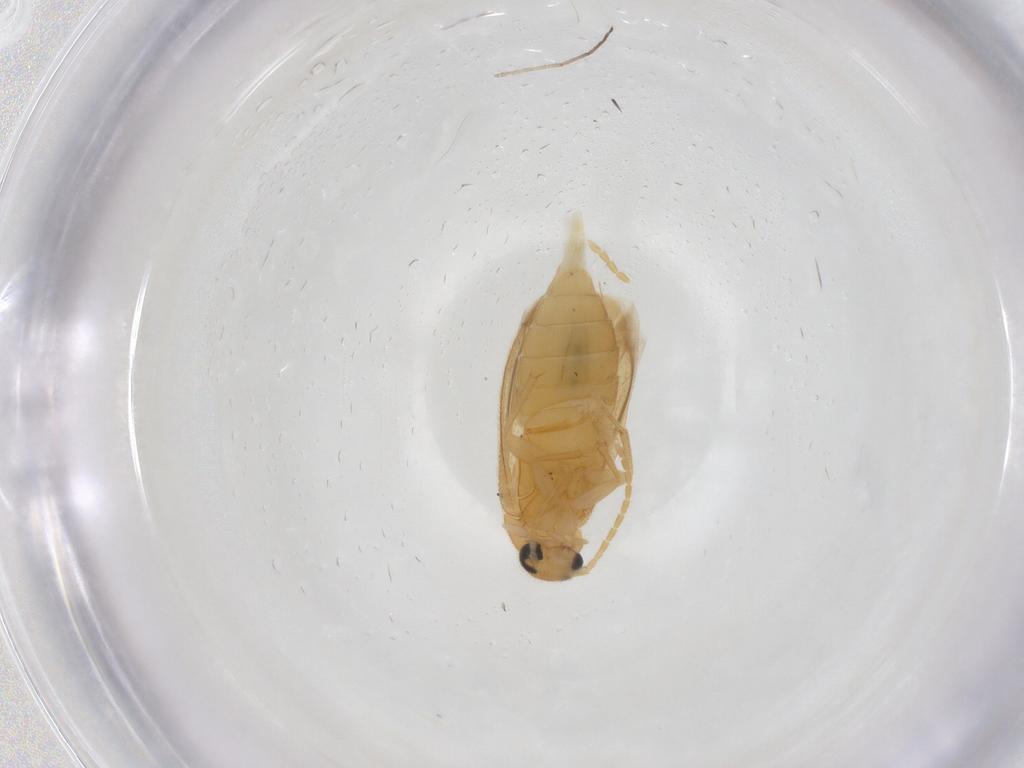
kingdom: Animalia
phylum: Arthropoda
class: Insecta
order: Coleoptera
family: Scraptiidae
